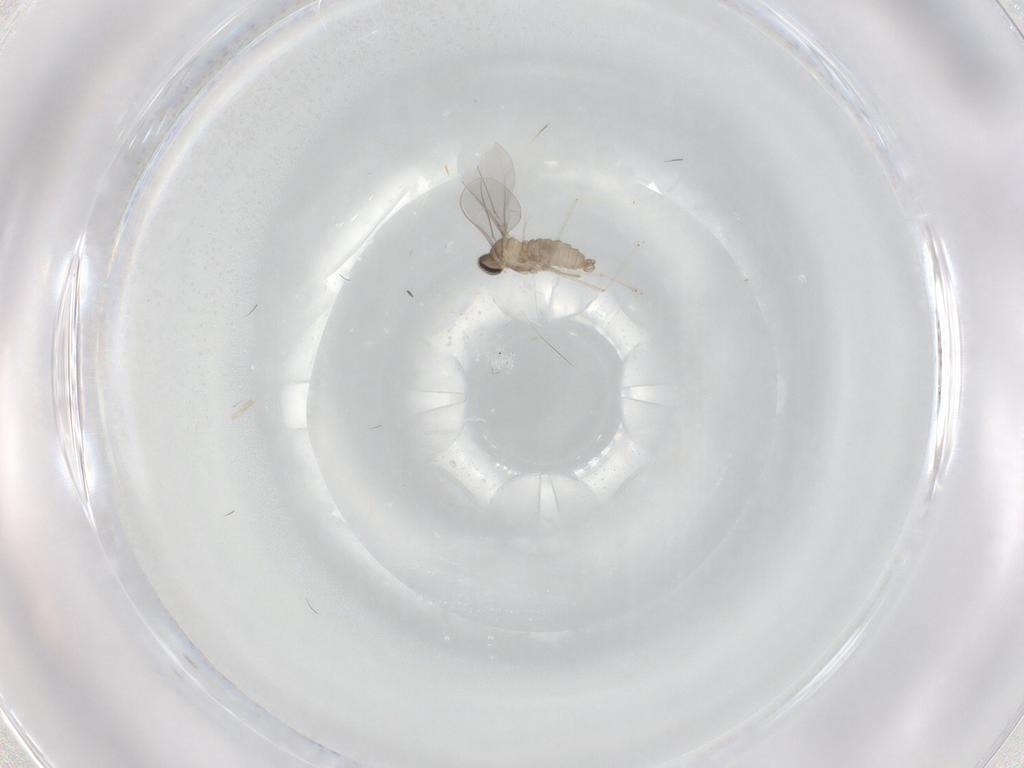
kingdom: Animalia
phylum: Arthropoda
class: Insecta
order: Diptera
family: Cecidomyiidae
